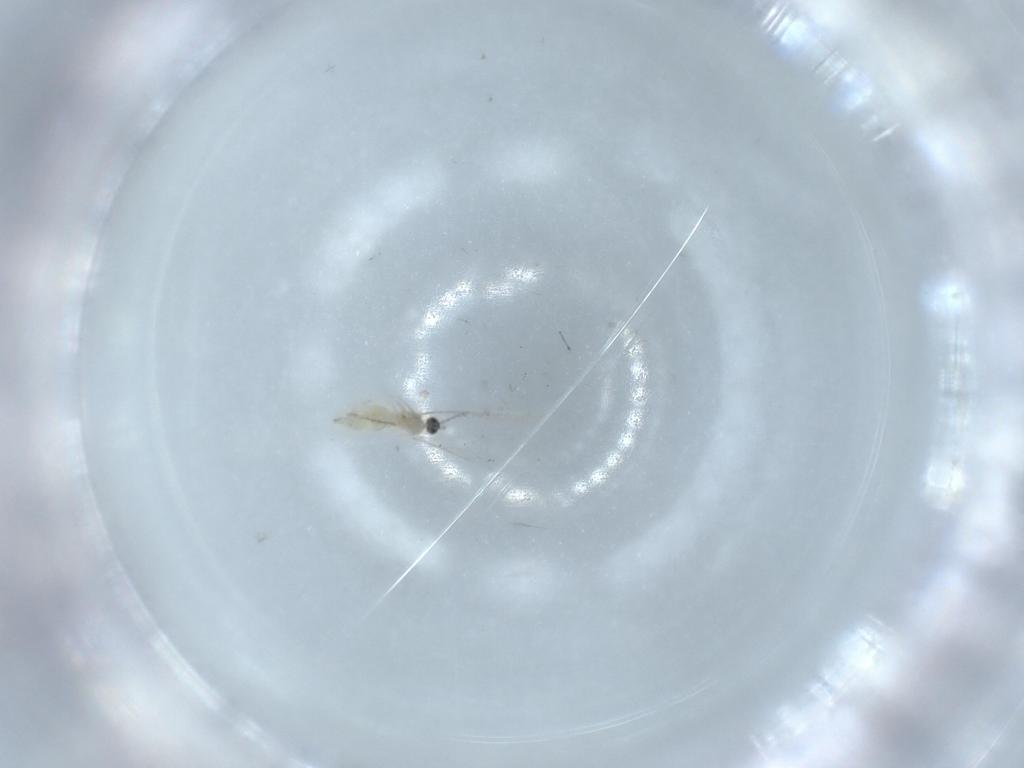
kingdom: Animalia
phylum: Arthropoda
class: Insecta
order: Diptera
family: Cecidomyiidae
